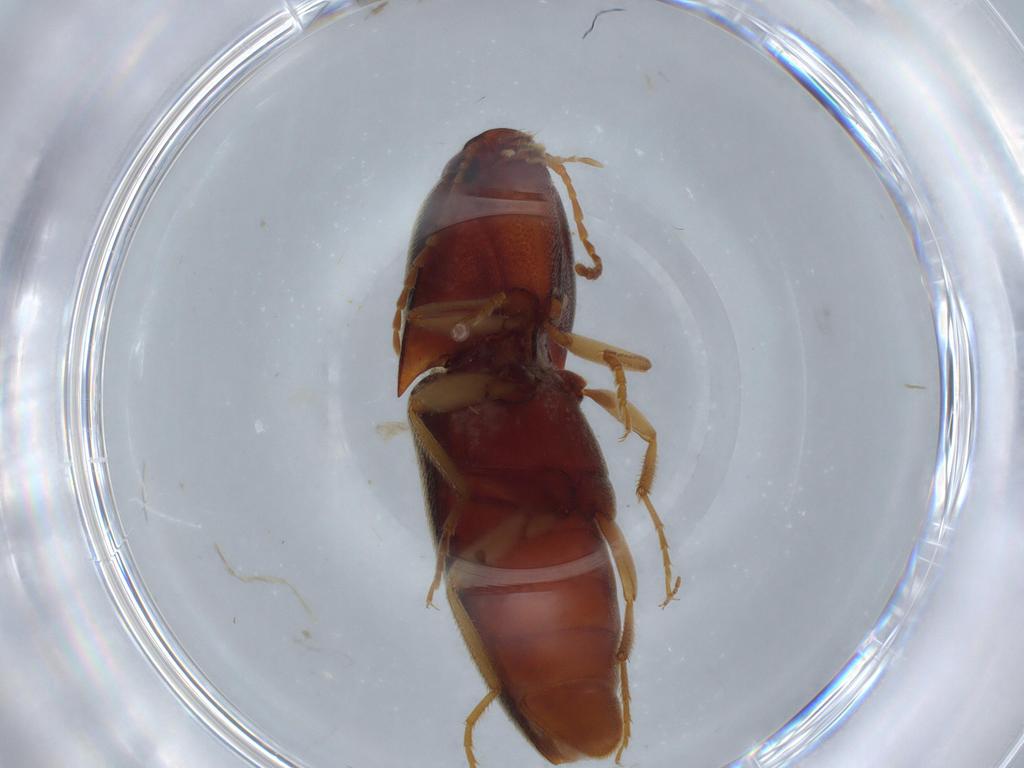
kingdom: Animalia
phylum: Arthropoda
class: Insecta
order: Coleoptera
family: Elateridae
